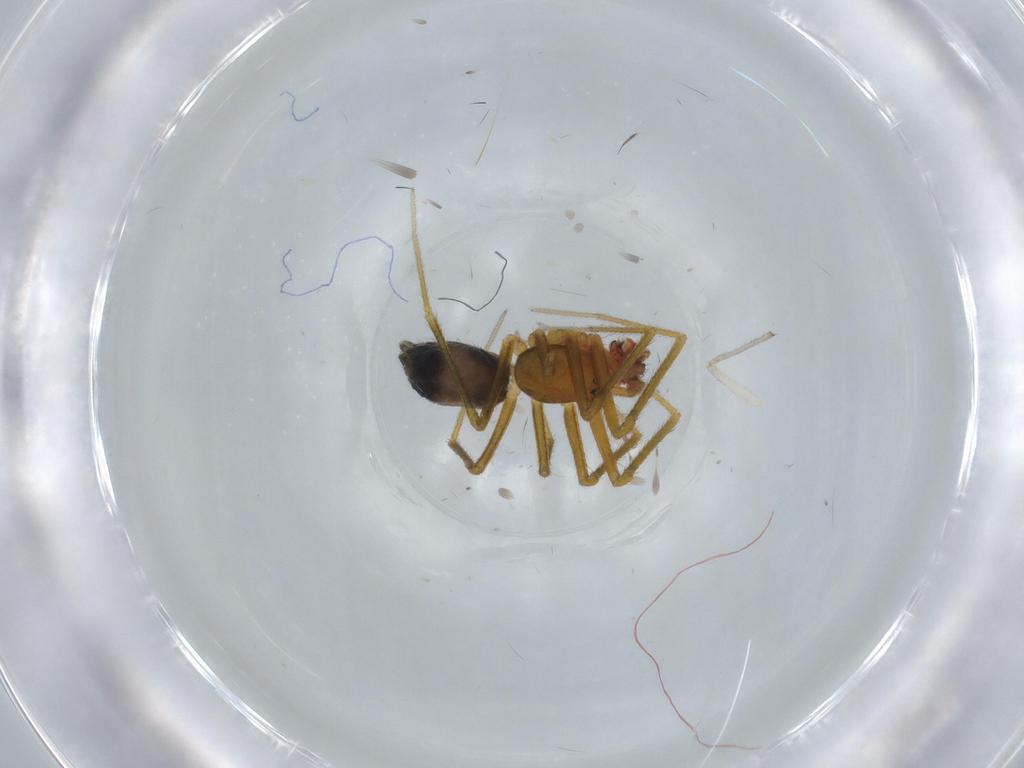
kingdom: Animalia
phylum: Arthropoda
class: Arachnida
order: Araneae
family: Linyphiidae
